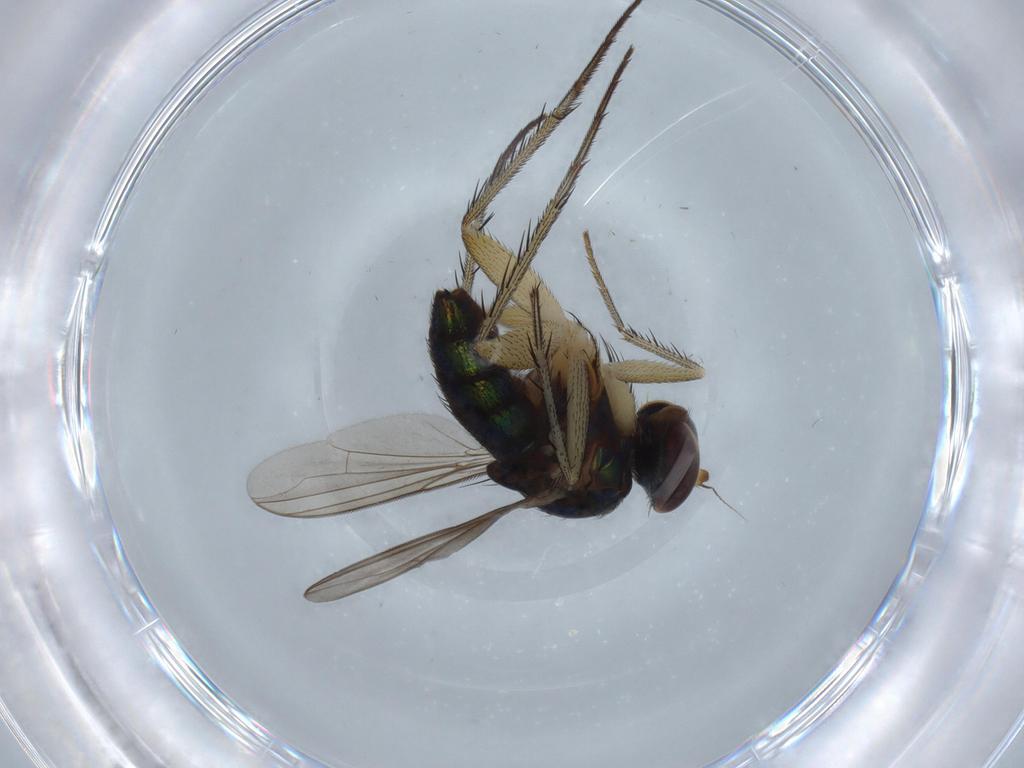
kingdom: Animalia
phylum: Arthropoda
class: Insecta
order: Diptera
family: Dolichopodidae
